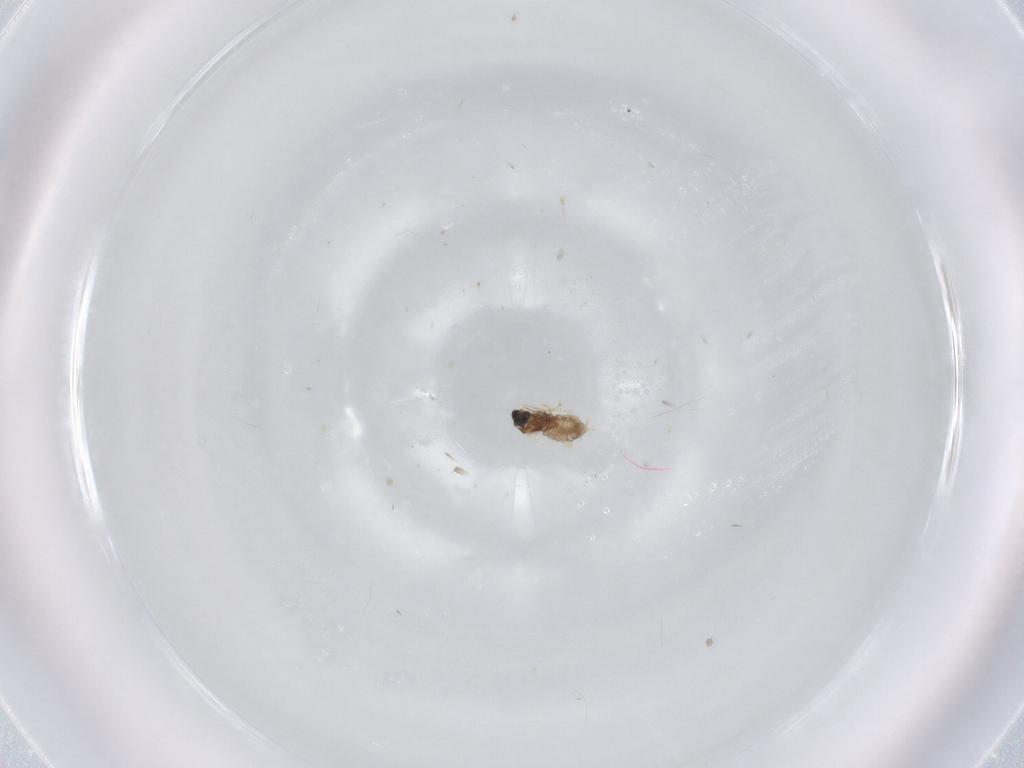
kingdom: Animalia
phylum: Arthropoda
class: Insecta
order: Diptera
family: Cecidomyiidae
